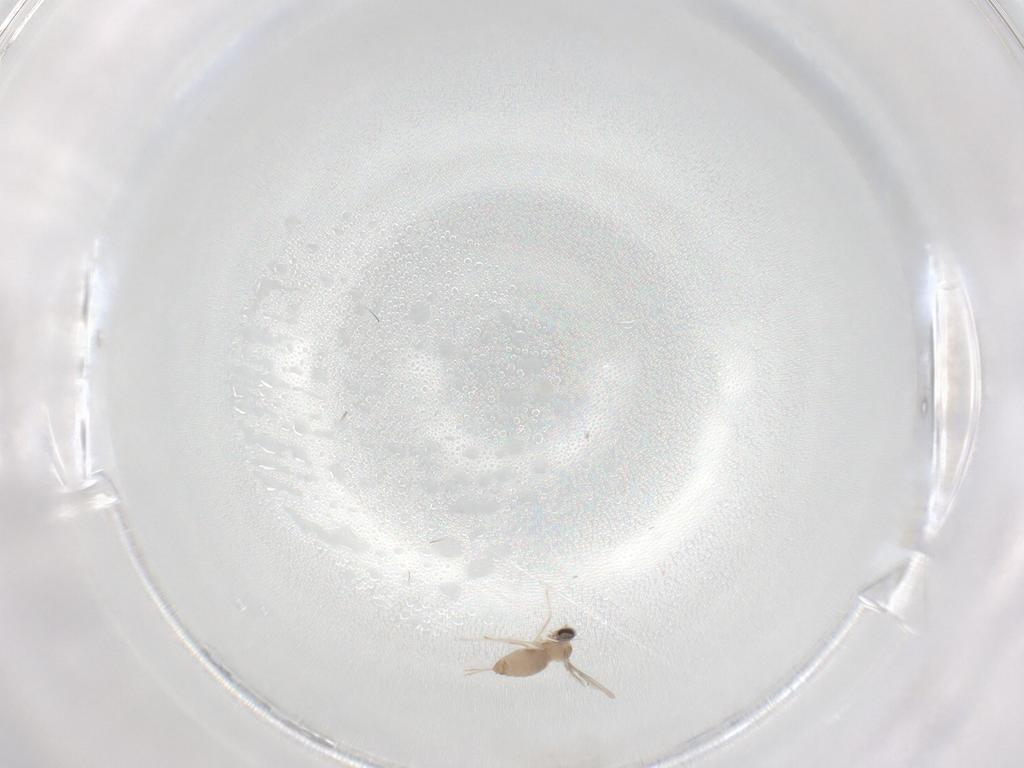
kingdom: Animalia
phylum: Arthropoda
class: Insecta
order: Diptera
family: Cecidomyiidae
